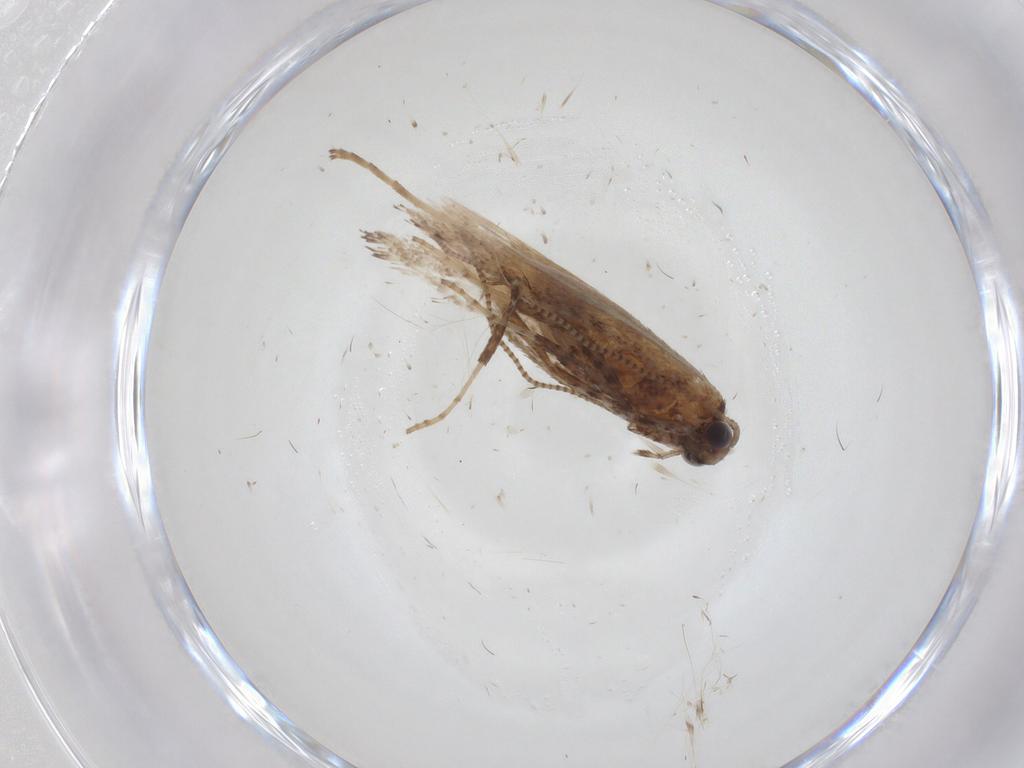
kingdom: Animalia
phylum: Arthropoda
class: Insecta
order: Lepidoptera
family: Gracillariidae
